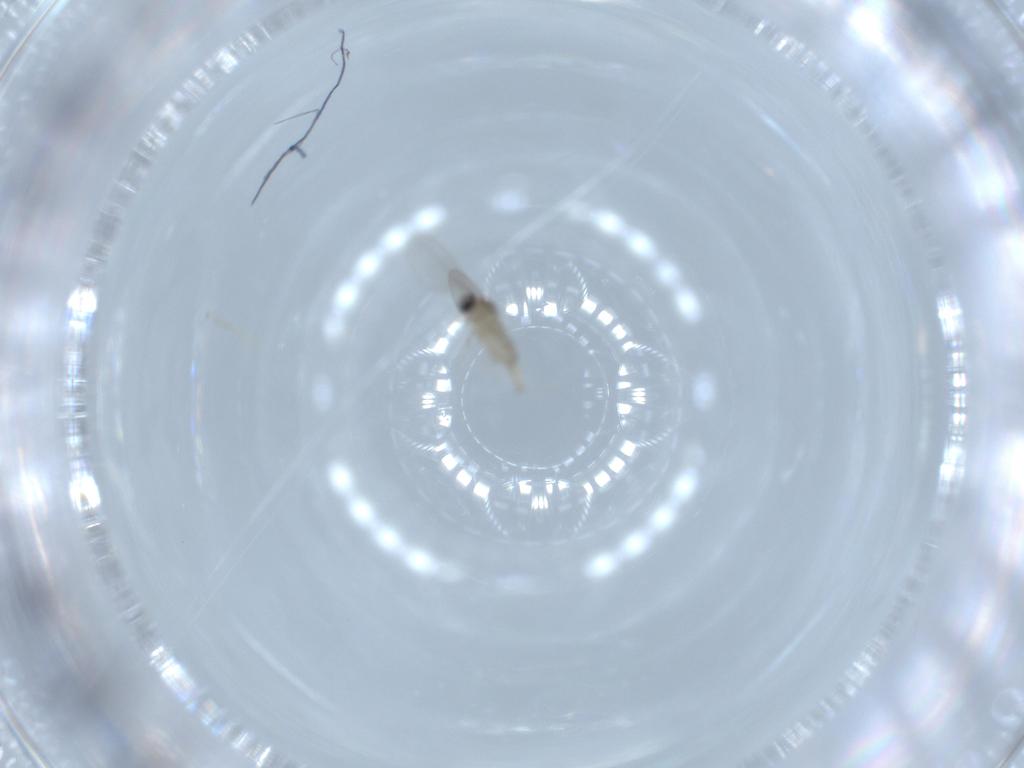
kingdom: Animalia
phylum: Arthropoda
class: Insecta
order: Diptera
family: Cecidomyiidae
